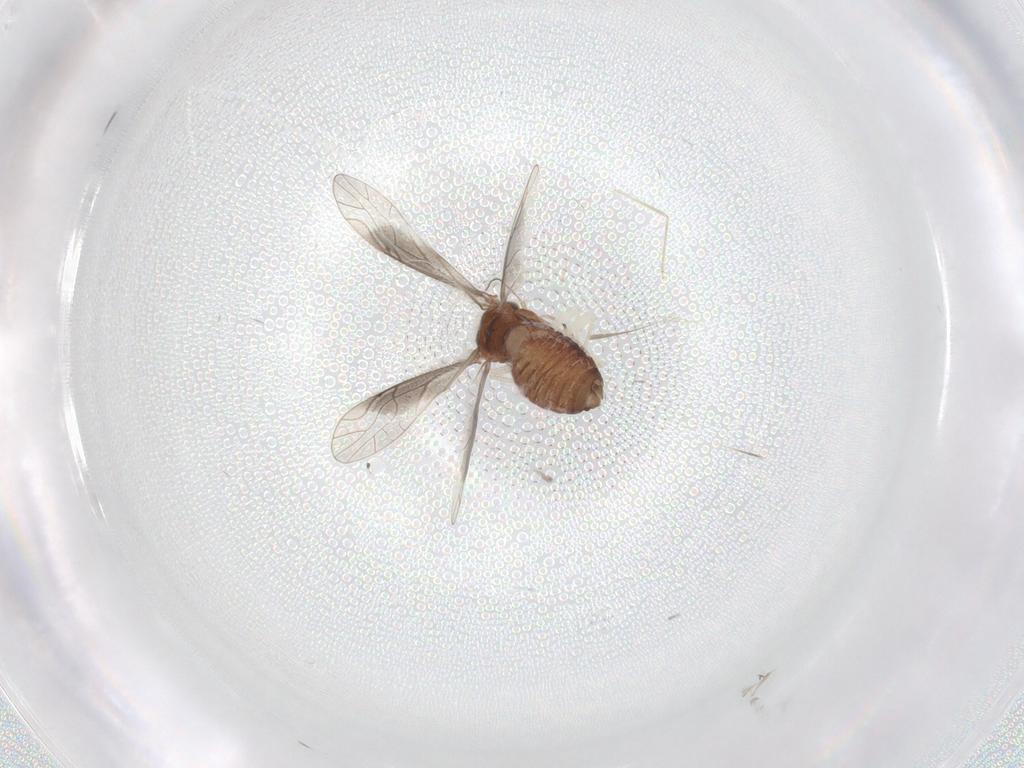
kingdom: Animalia
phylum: Arthropoda
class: Insecta
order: Psocodea
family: Caeciliusidae
